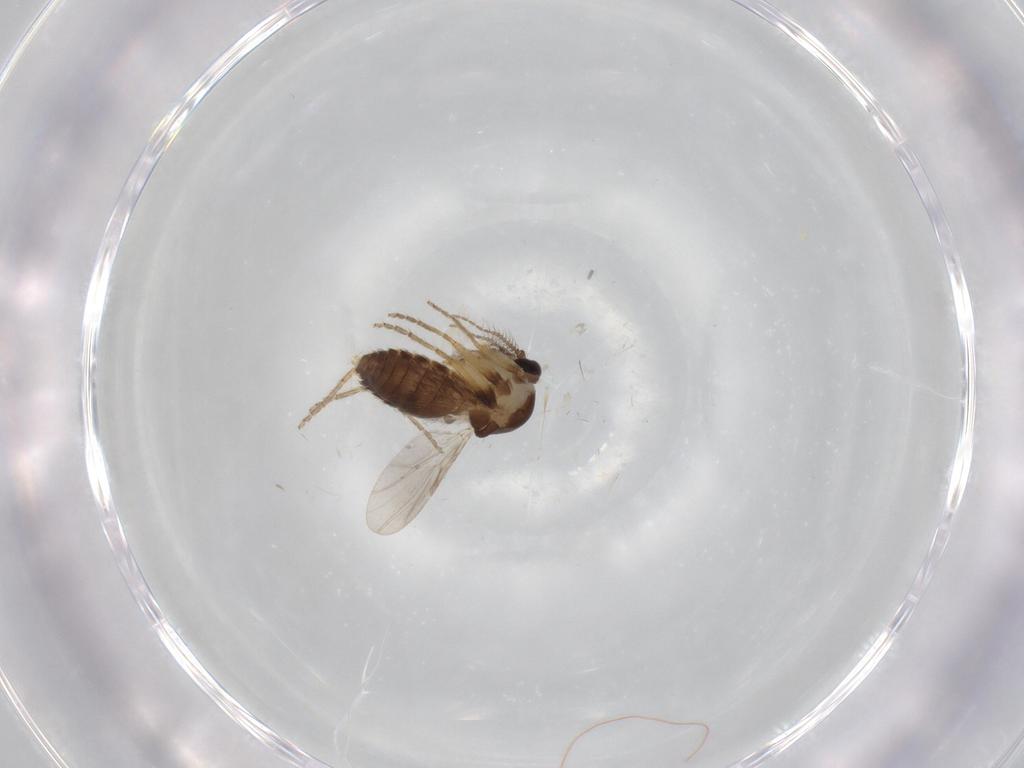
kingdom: Animalia
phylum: Arthropoda
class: Insecta
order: Diptera
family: Ceratopogonidae
